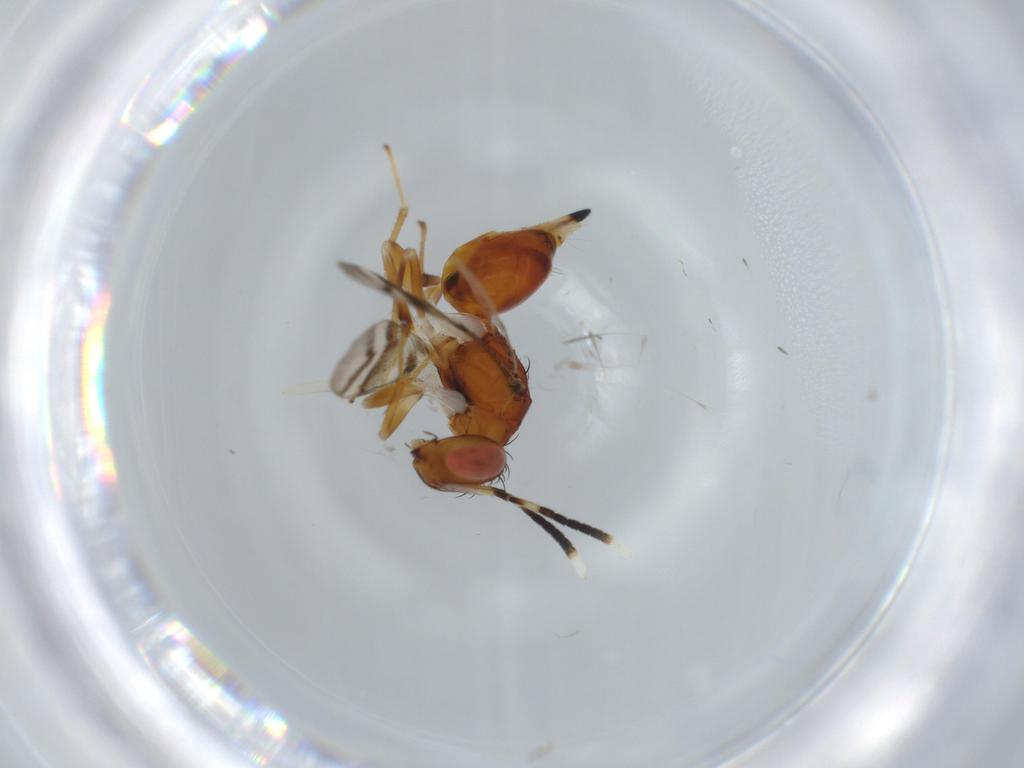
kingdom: Animalia
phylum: Arthropoda
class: Insecta
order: Hymenoptera
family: Diparidae
